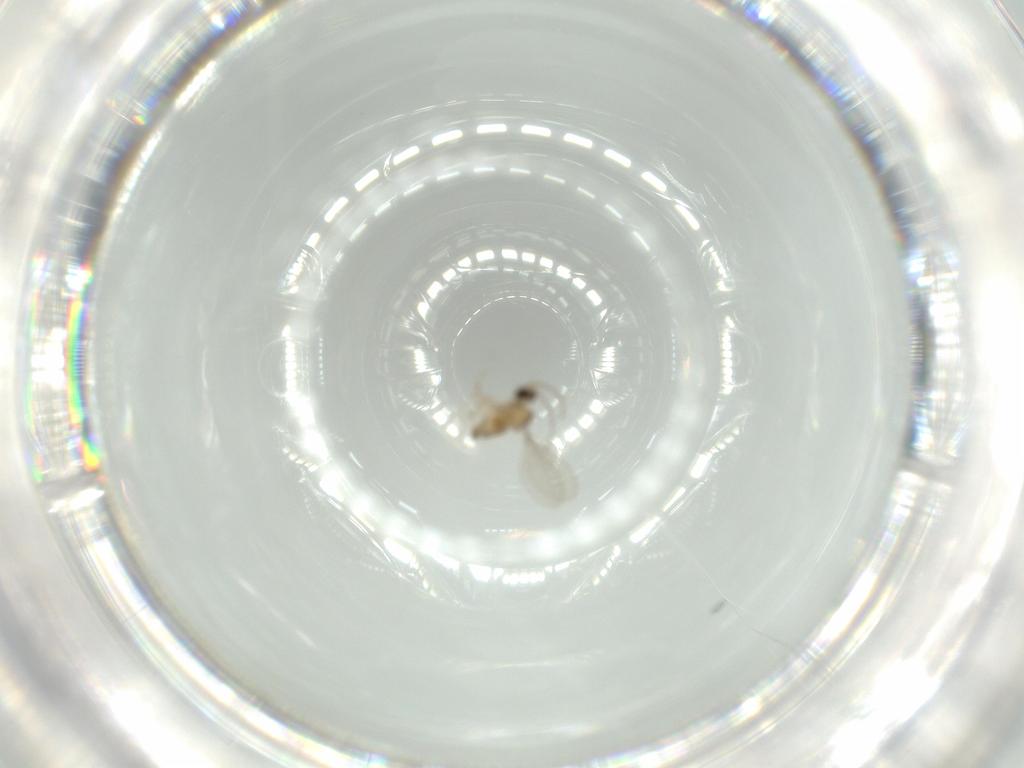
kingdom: Animalia
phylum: Arthropoda
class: Insecta
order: Diptera
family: Cecidomyiidae
